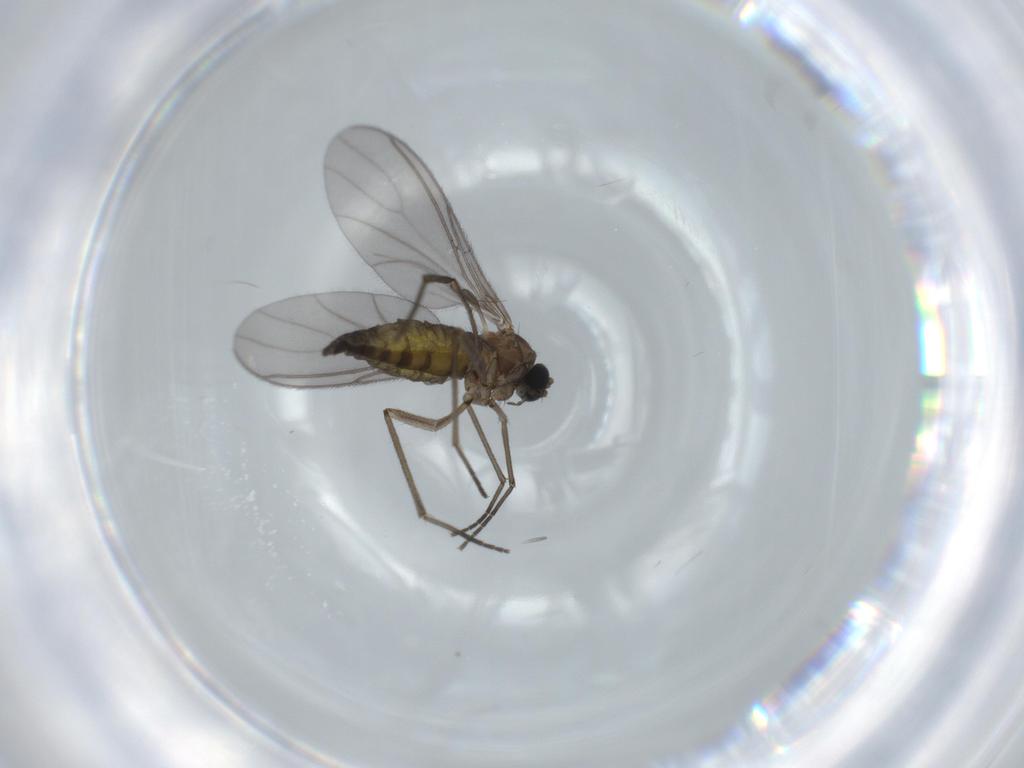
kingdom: Animalia
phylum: Arthropoda
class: Insecta
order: Diptera
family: Sciaridae
